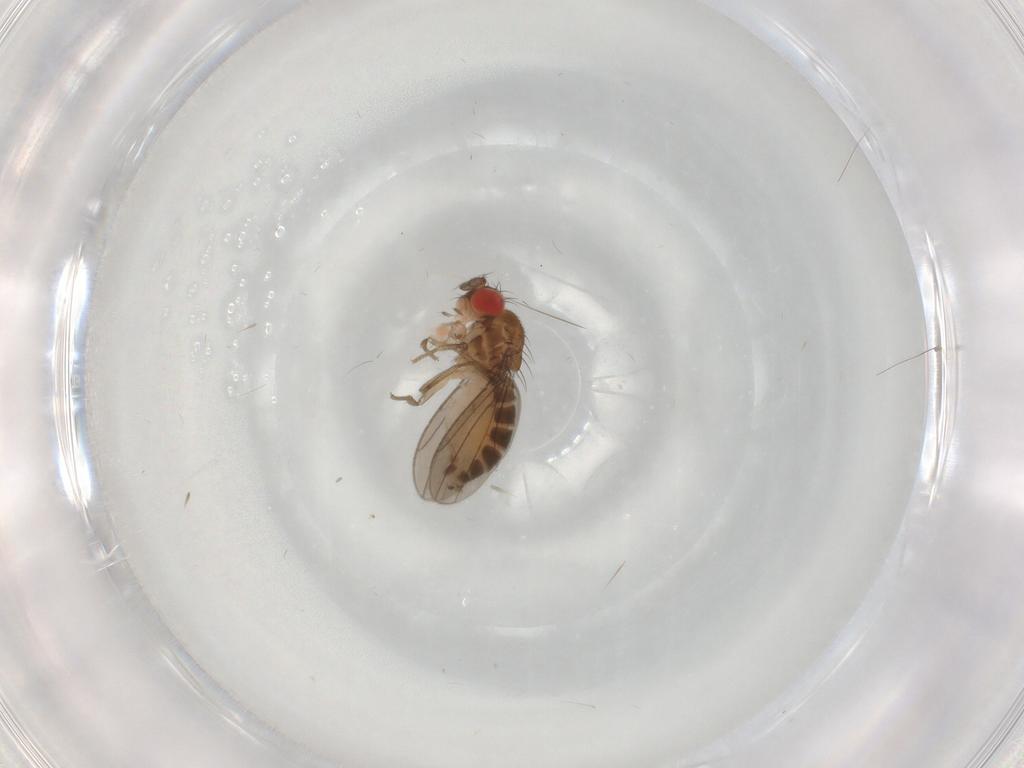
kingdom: Animalia
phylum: Arthropoda
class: Insecta
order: Diptera
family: Drosophilidae
